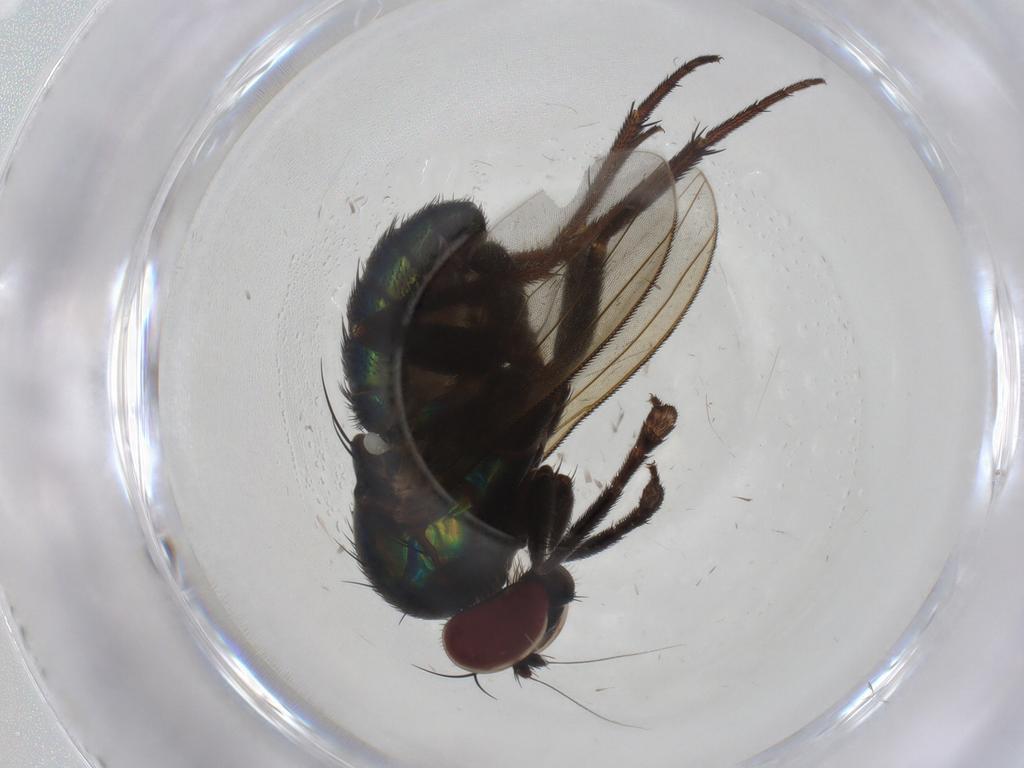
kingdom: Animalia
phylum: Arthropoda
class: Insecta
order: Diptera
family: Dolichopodidae
